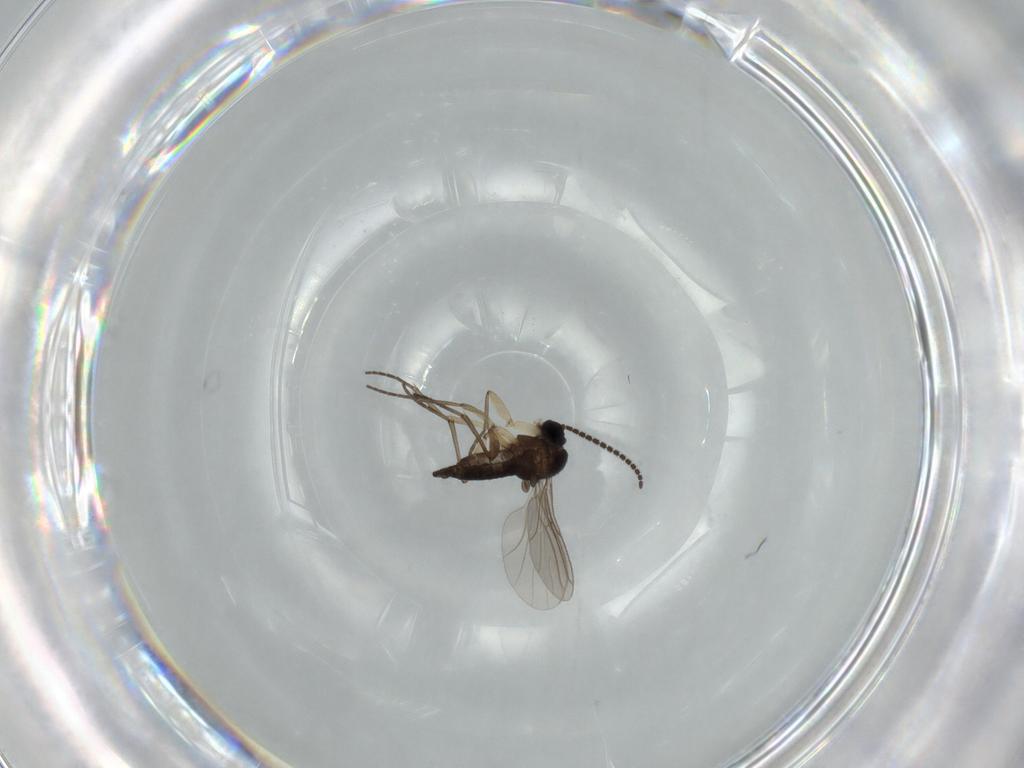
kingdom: Animalia
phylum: Arthropoda
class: Insecta
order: Diptera
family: Sciaridae
